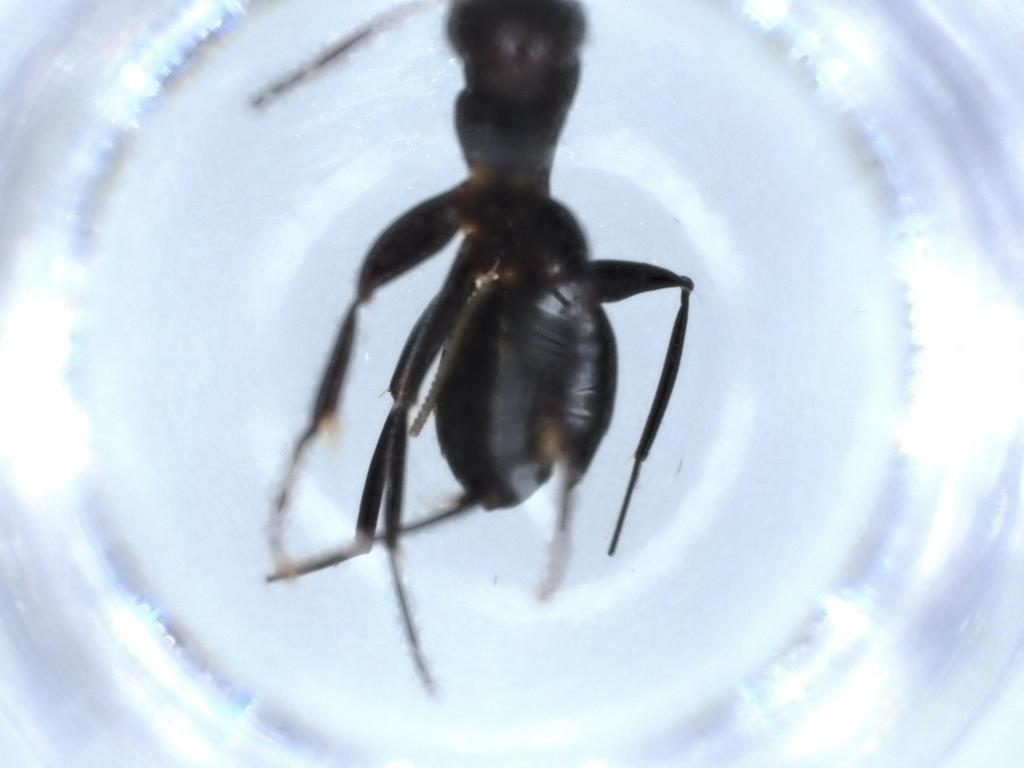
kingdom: Animalia
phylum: Arthropoda
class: Insecta
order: Hymenoptera
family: Formicidae
